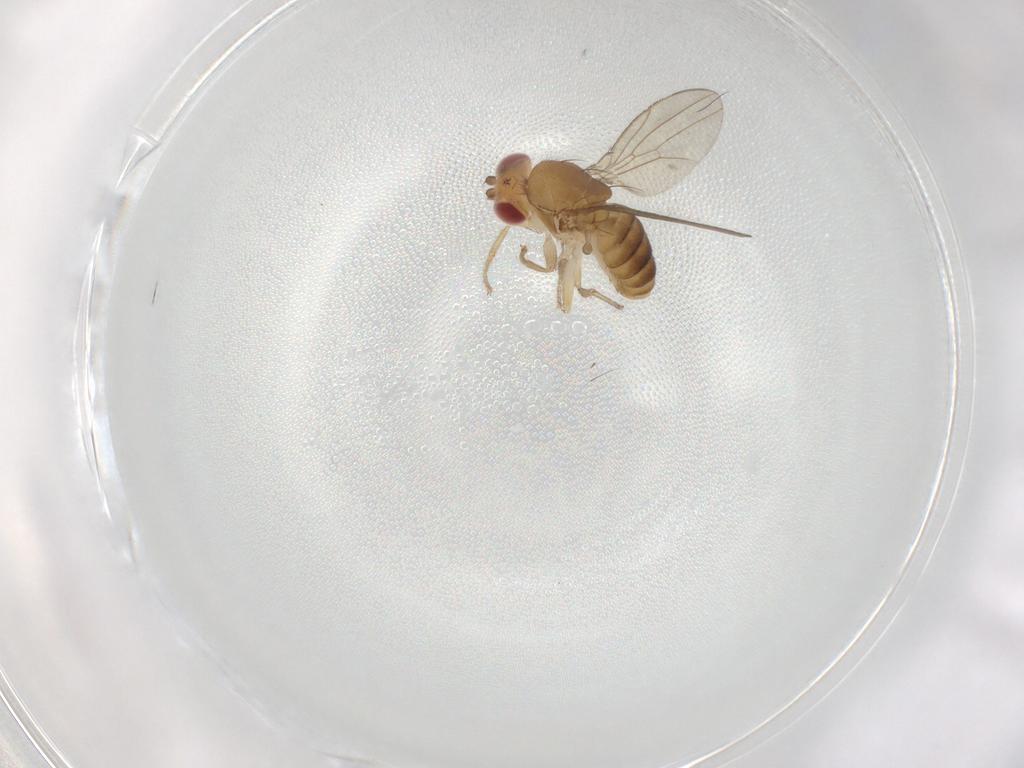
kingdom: Animalia
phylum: Arthropoda
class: Insecta
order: Diptera
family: Drosophilidae
